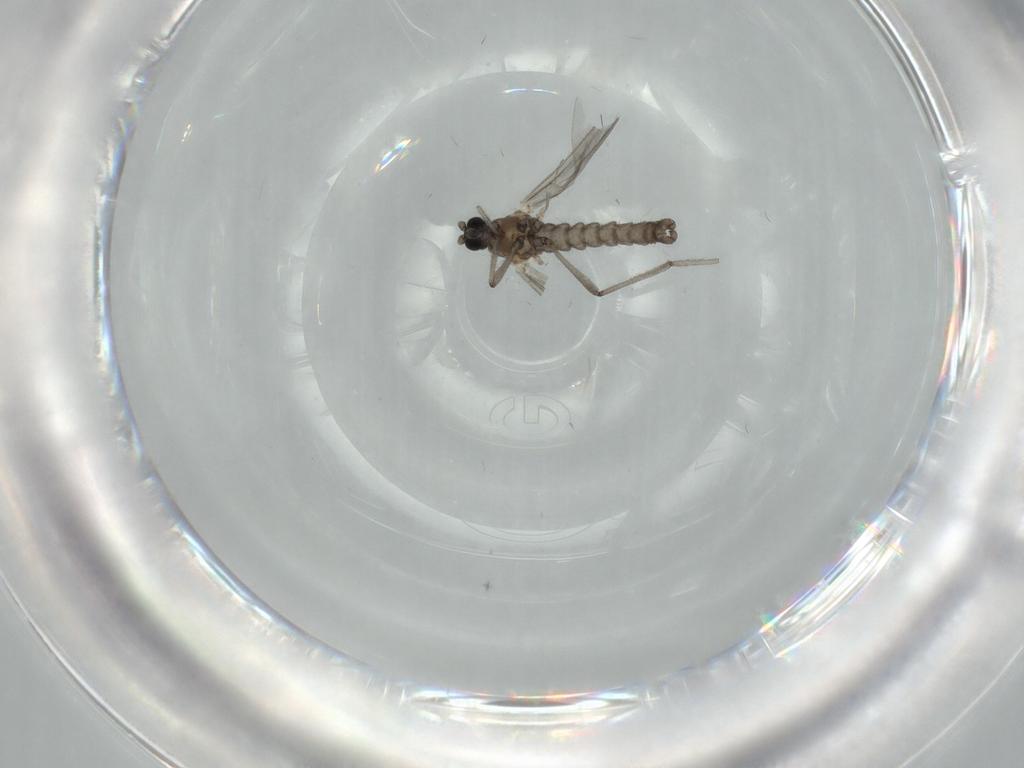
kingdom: Animalia
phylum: Arthropoda
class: Insecta
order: Diptera
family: Cecidomyiidae
